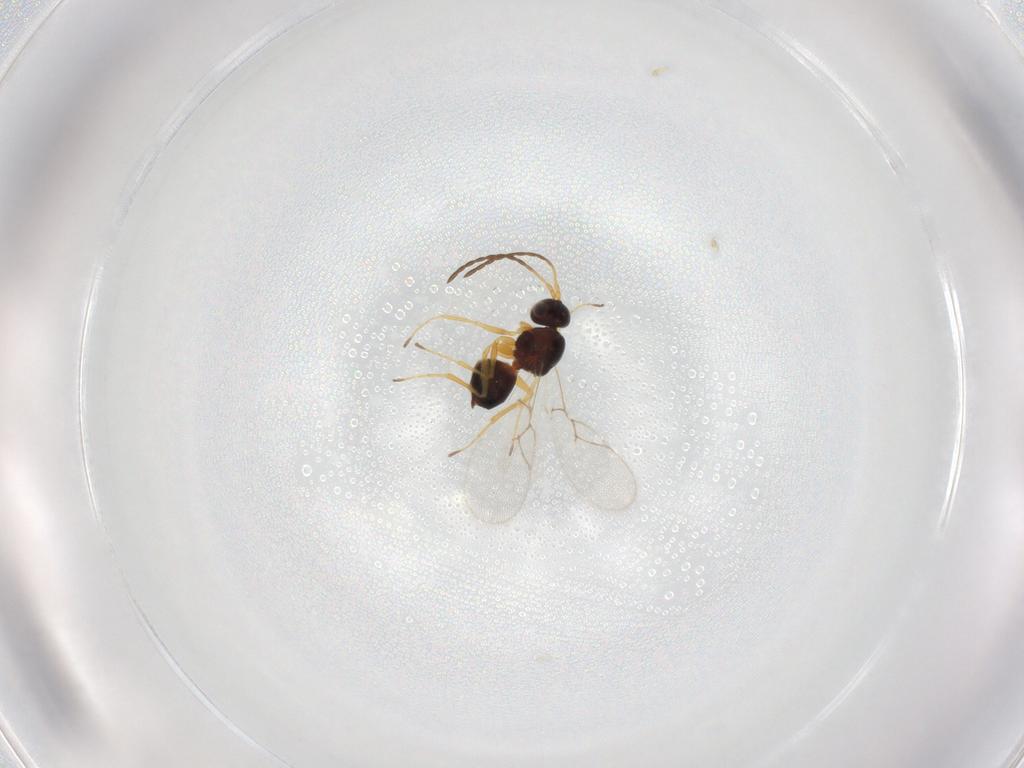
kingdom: Animalia
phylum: Arthropoda
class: Insecta
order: Hymenoptera
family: Figitidae
